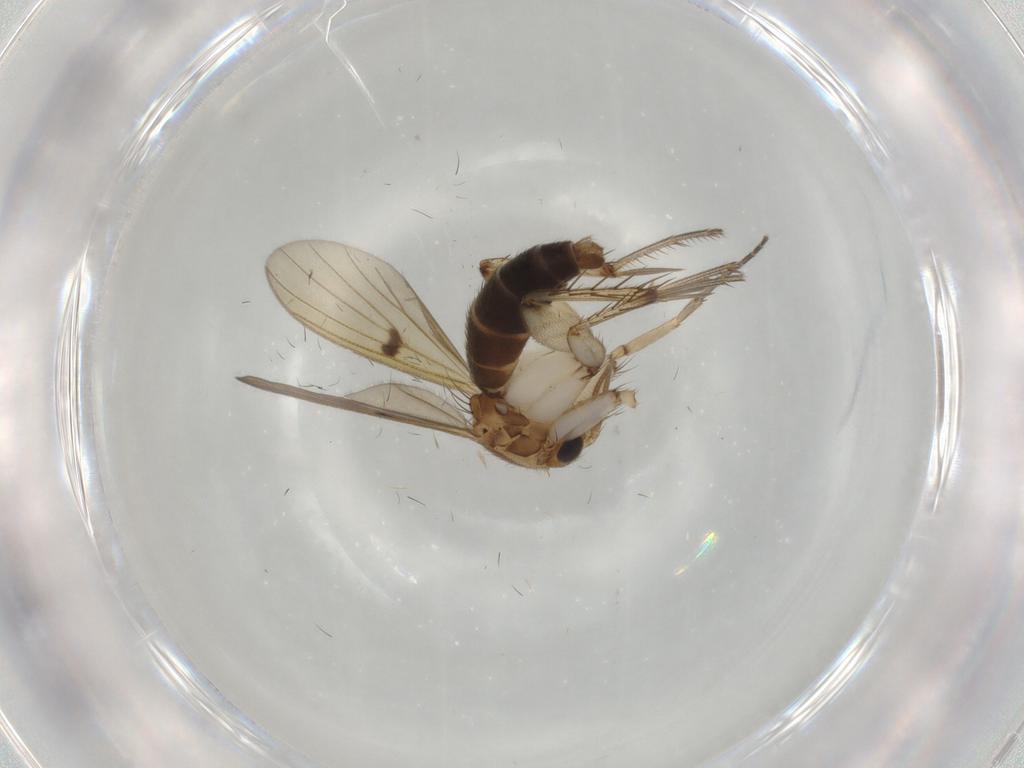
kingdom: Animalia
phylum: Arthropoda
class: Insecta
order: Diptera
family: Mycetophilidae
